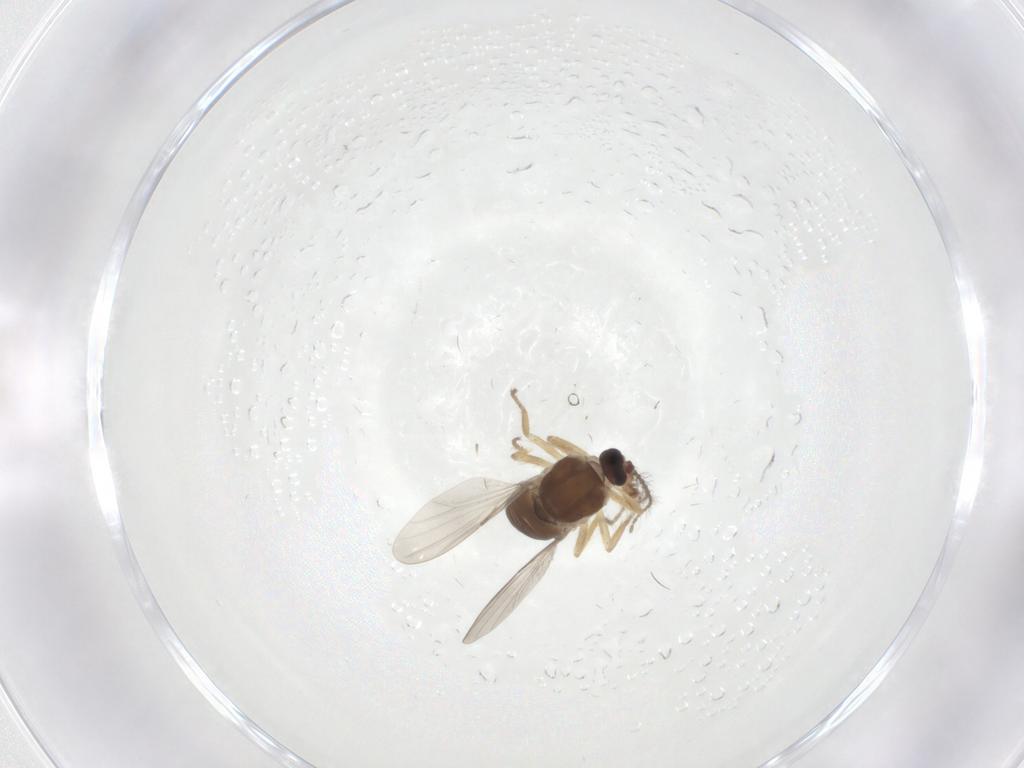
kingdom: Animalia
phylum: Arthropoda
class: Insecta
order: Diptera
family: Ceratopogonidae
